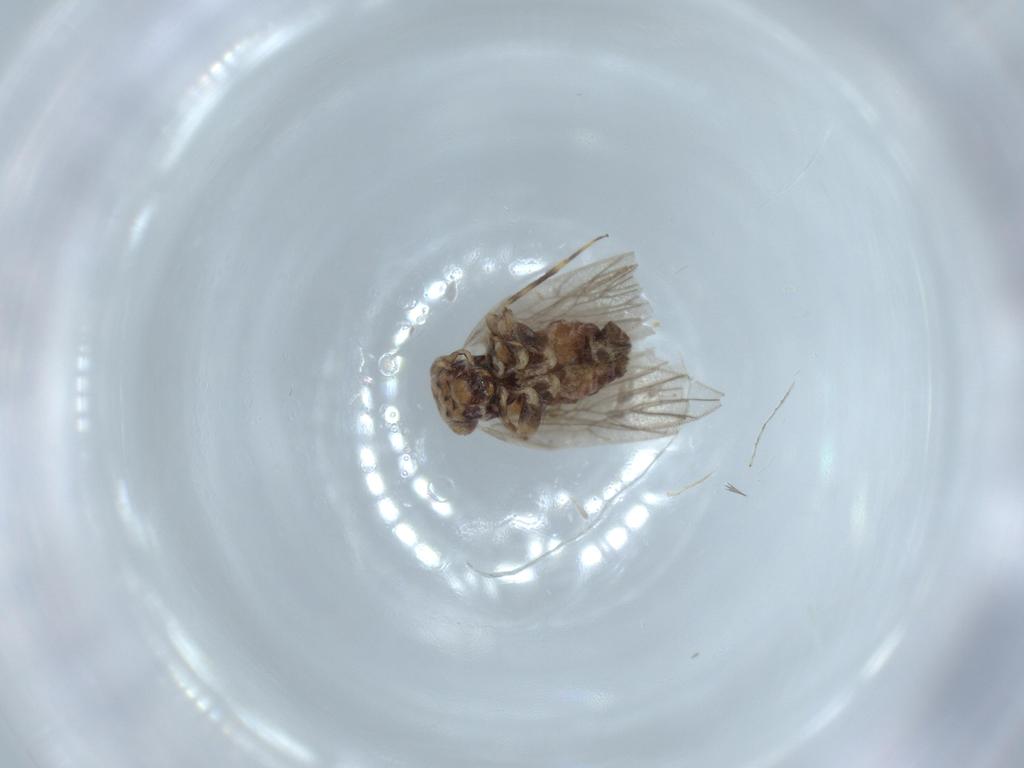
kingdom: Animalia
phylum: Arthropoda
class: Insecta
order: Psocodea
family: Lepidopsocidae
